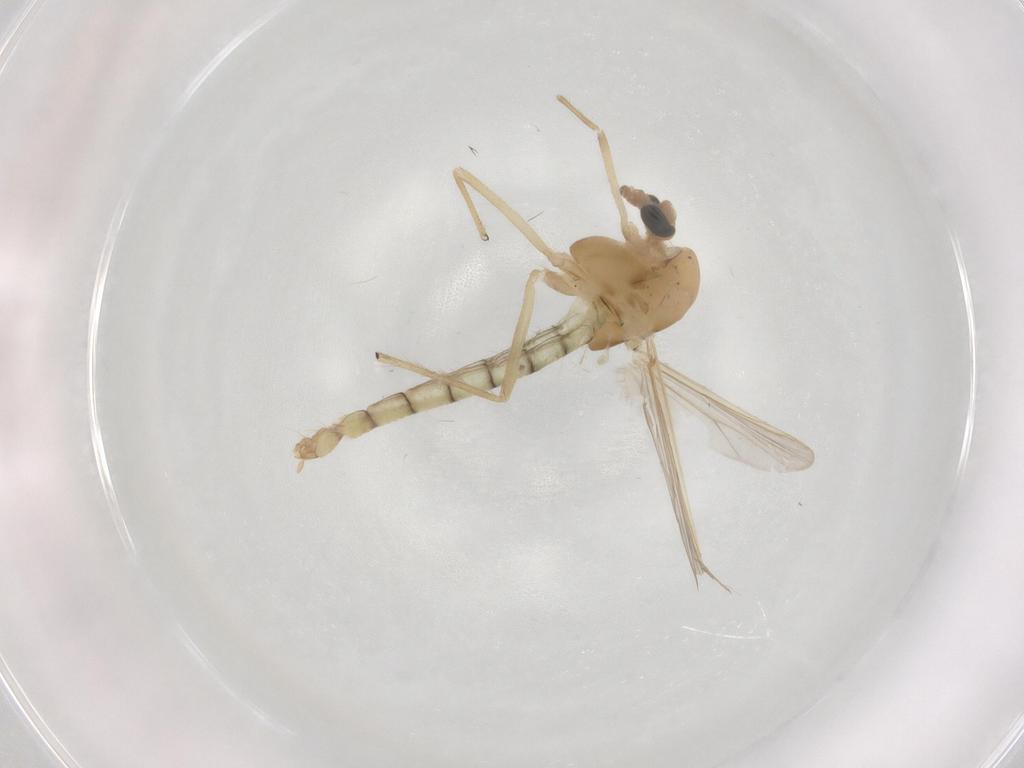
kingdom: Animalia
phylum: Arthropoda
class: Insecta
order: Diptera
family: Chironomidae
